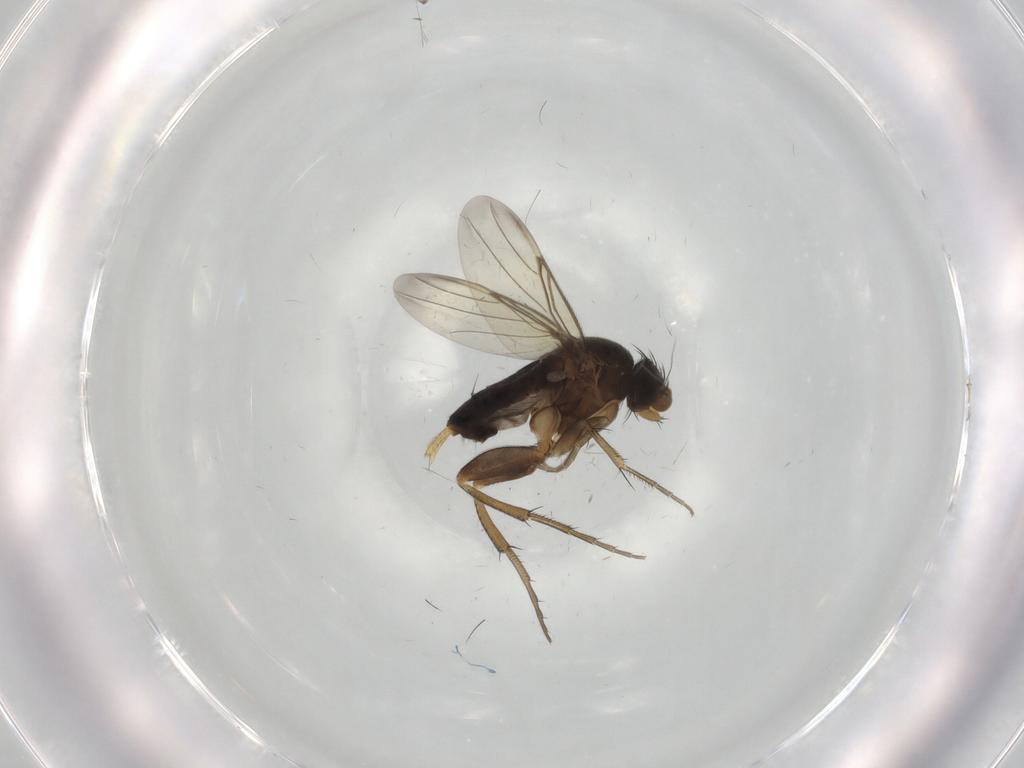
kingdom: Animalia
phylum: Arthropoda
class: Insecta
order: Diptera
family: Phoridae
